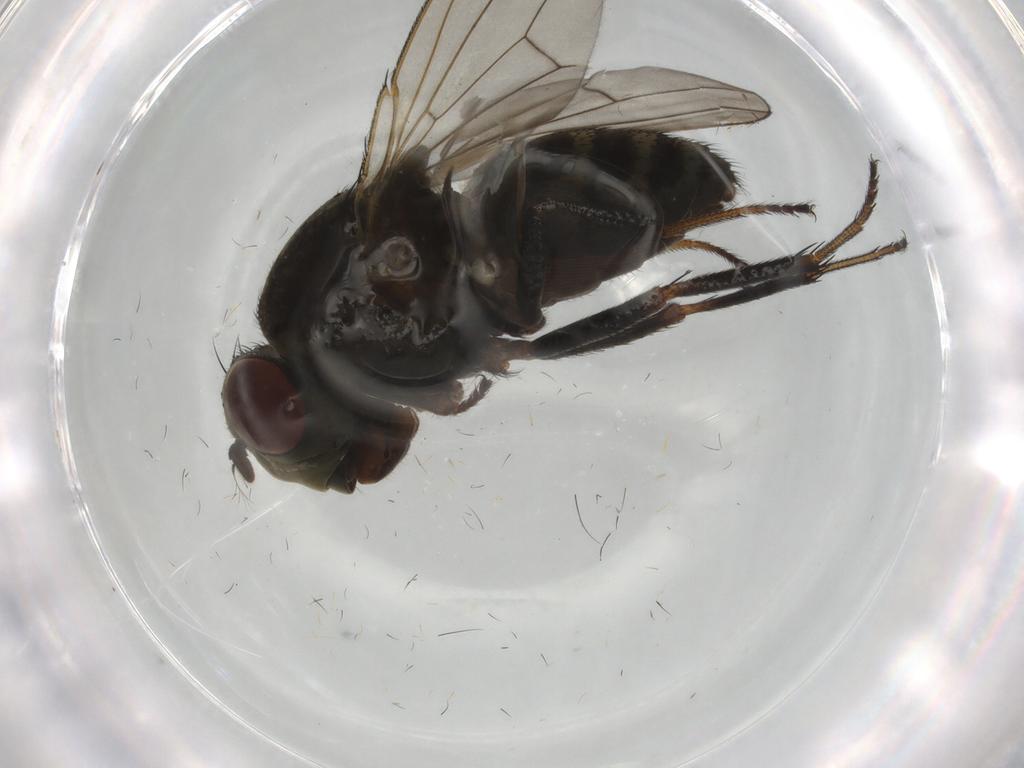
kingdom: Animalia
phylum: Arthropoda
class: Insecta
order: Diptera
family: Ephydridae
